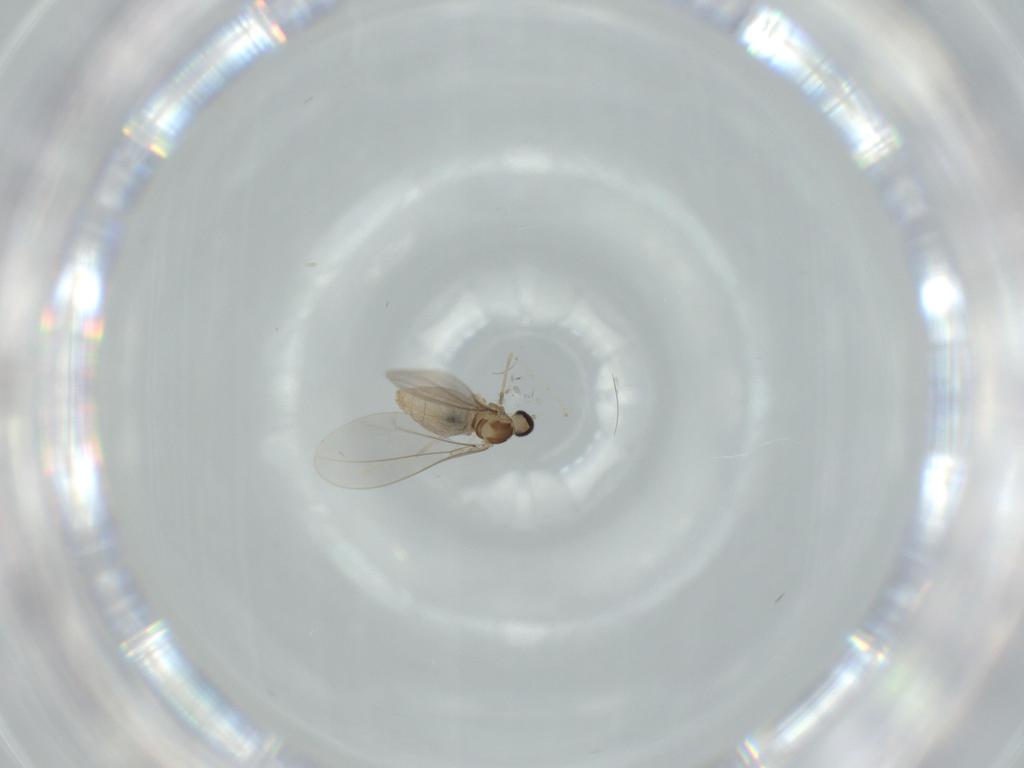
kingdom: Animalia
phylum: Arthropoda
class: Insecta
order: Diptera
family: Cecidomyiidae
